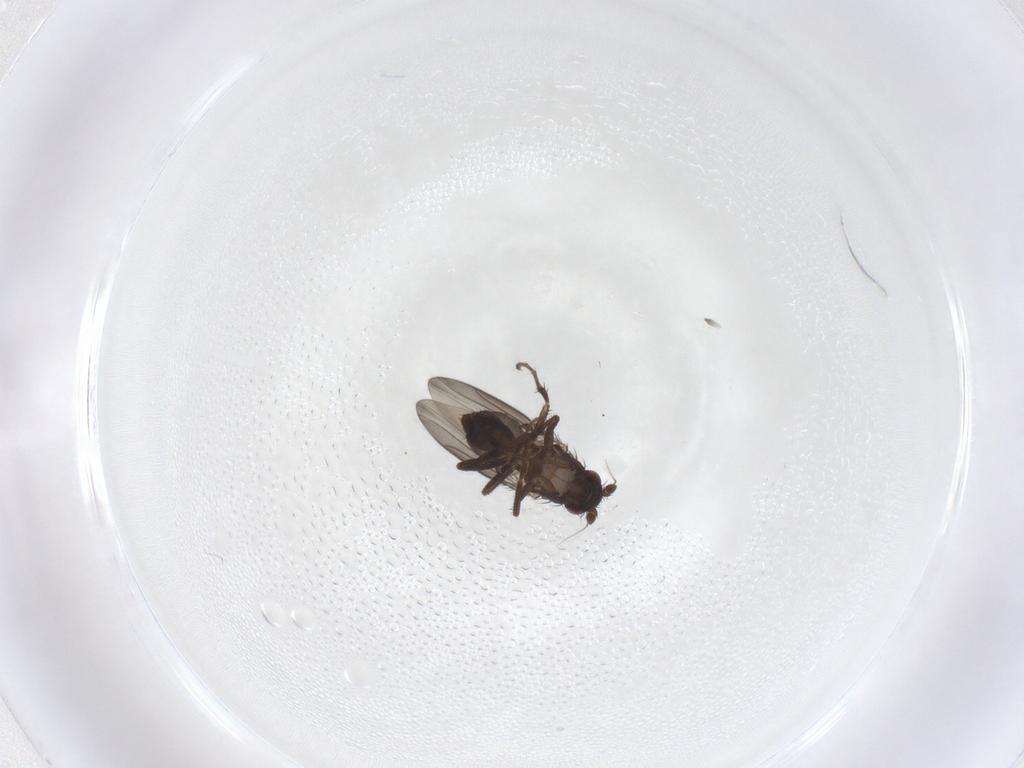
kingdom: Animalia
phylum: Arthropoda
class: Insecta
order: Diptera
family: Sphaeroceridae
